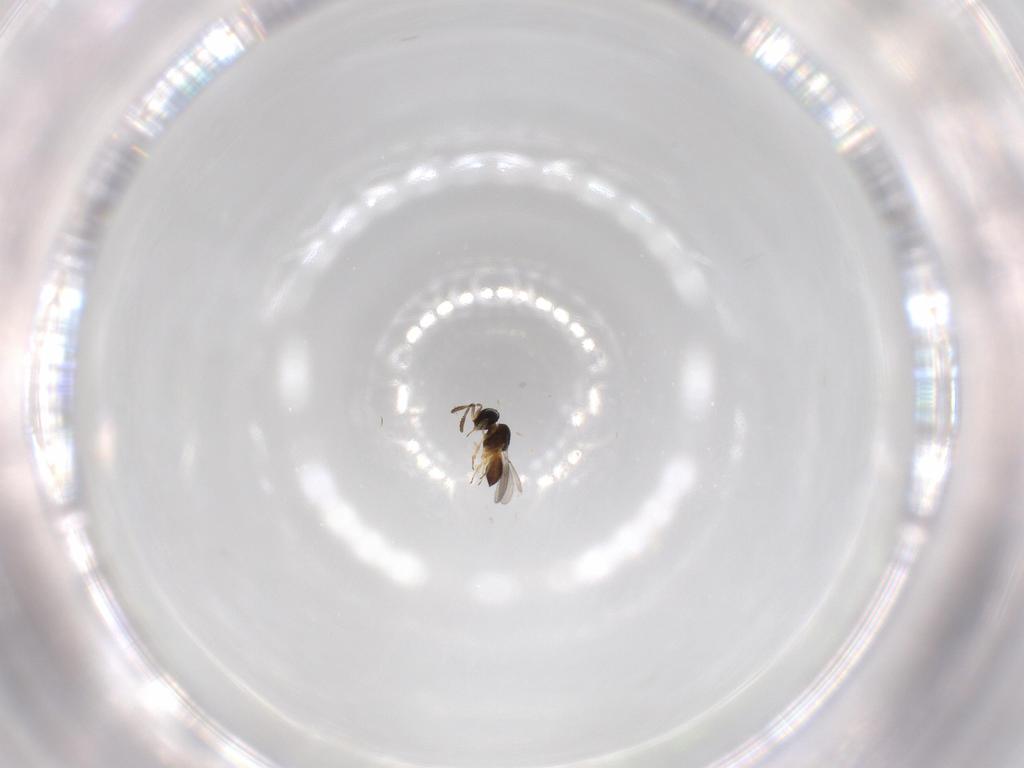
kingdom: Animalia
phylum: Arthropoda
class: Insecta
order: Hymenoptera
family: Scelionidae
